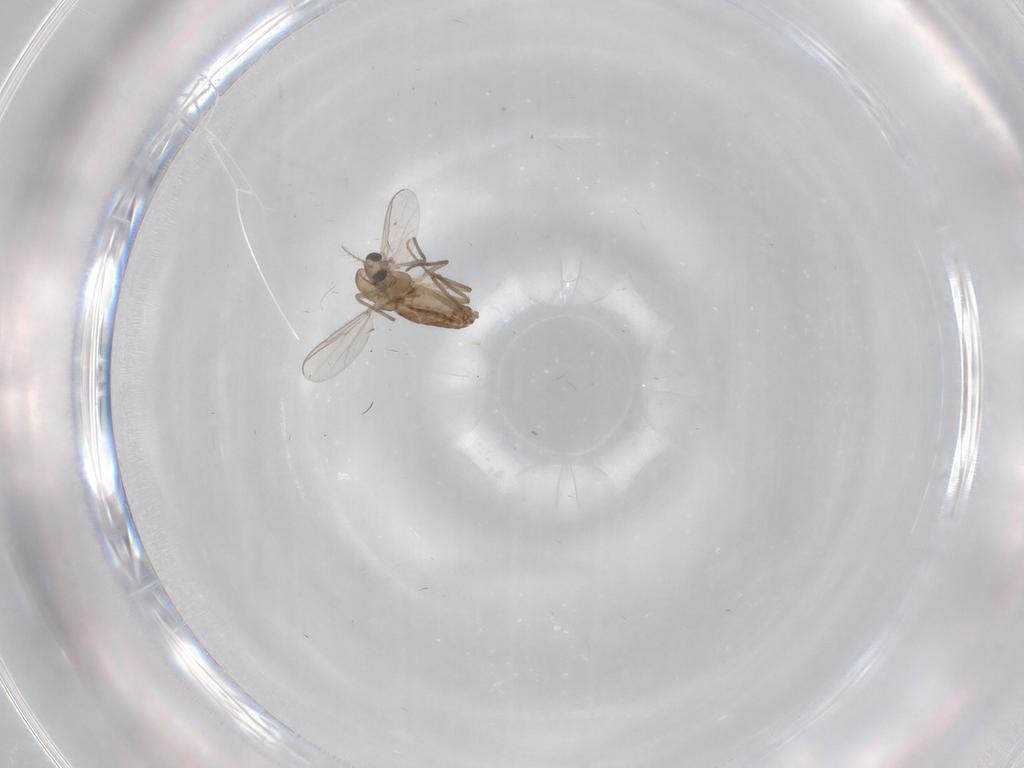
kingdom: Animalia
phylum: Arthropoda
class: Insecta
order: Diptera
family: Chironomidae
